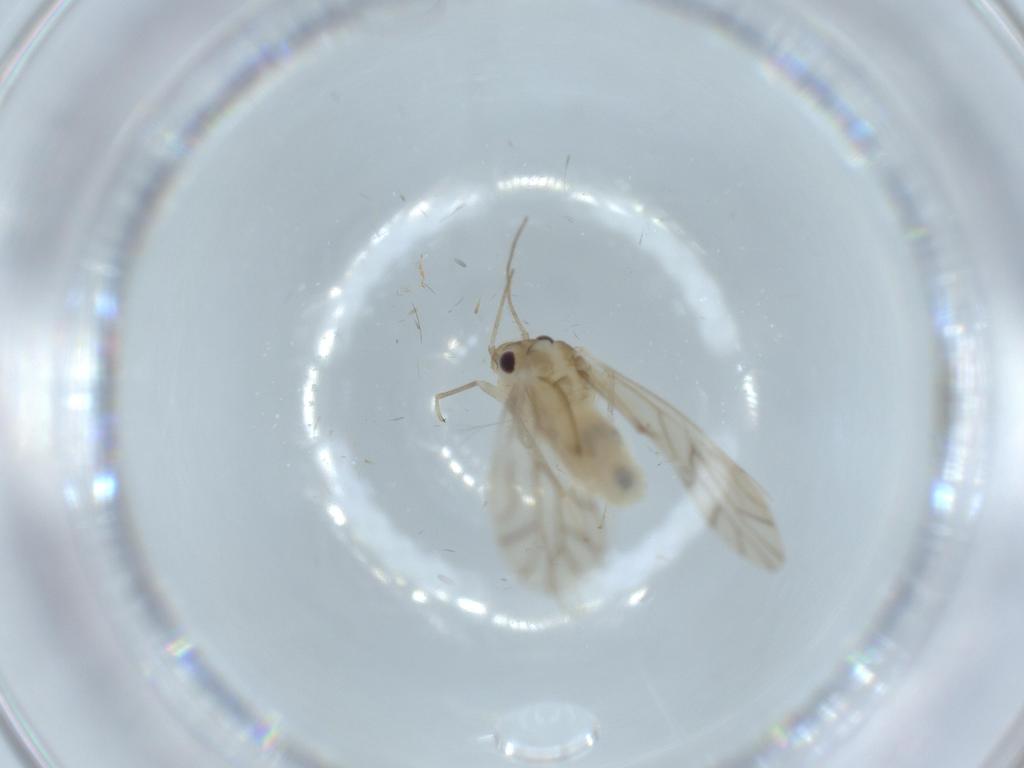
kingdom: Animalia
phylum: Arthropoda
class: Insecta
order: Psocodea
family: Caeciliusidae
